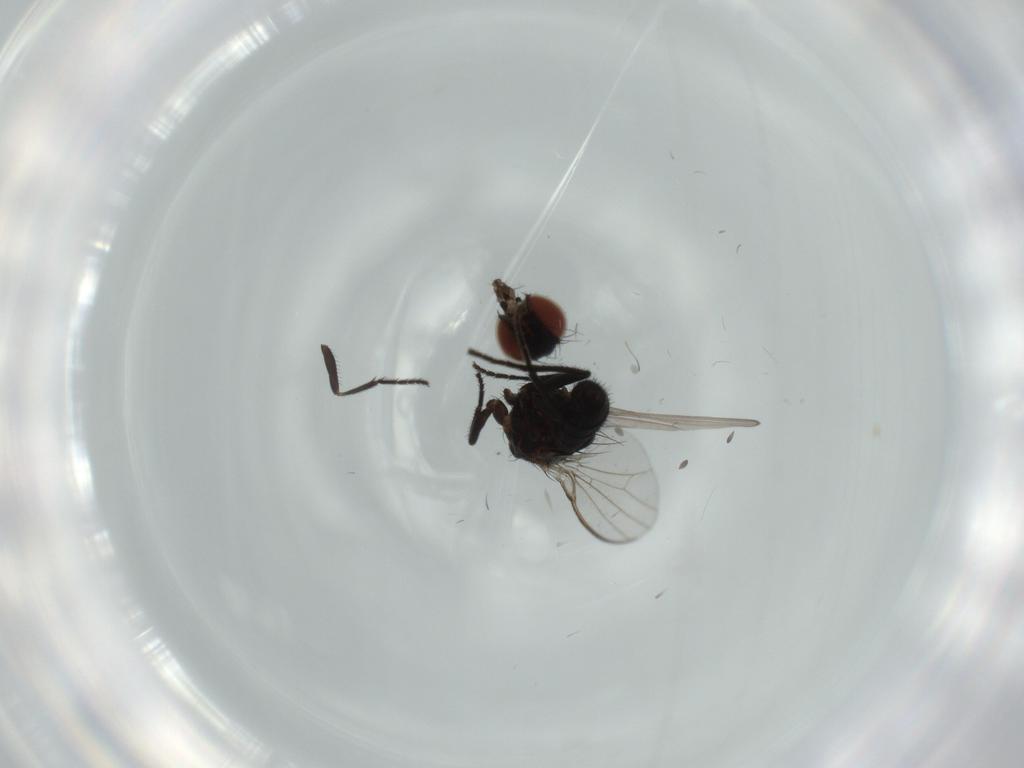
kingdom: Animalia
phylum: Arthropoda
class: Insecta
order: Diptera
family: Milichiidae
